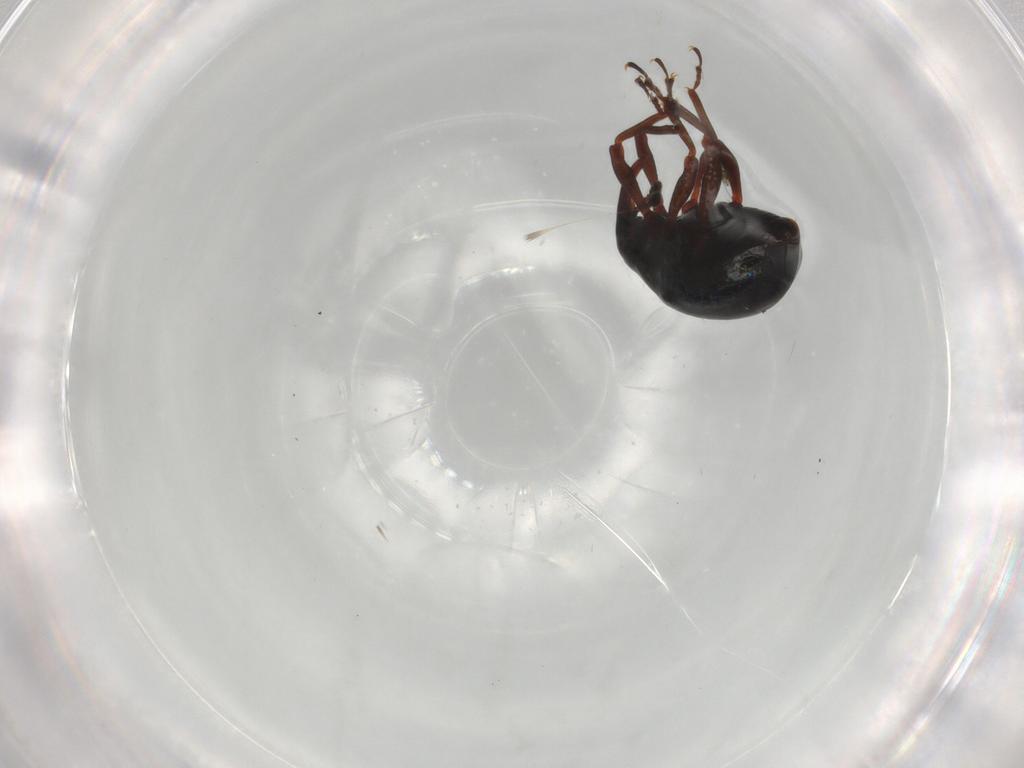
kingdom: Animalia
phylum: Arthropoda
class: Insecta
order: Coleoptera
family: Curculionidae
